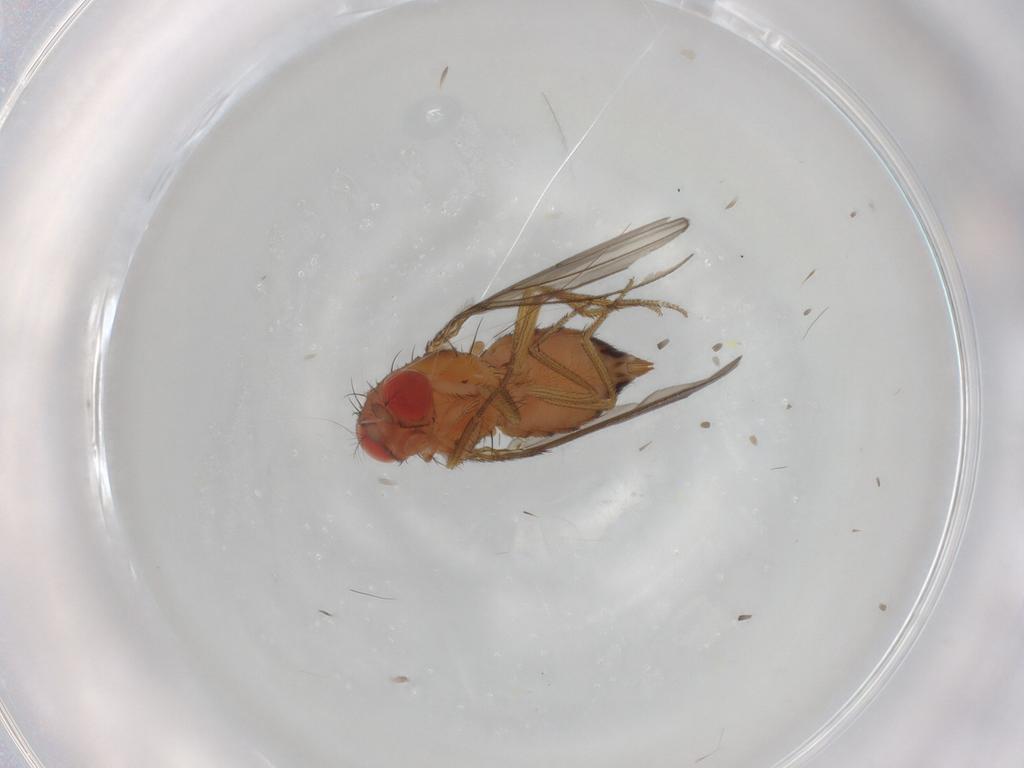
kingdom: Animalia
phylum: Arthropoda
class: Insecta
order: Diptera
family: Drosophilidae
